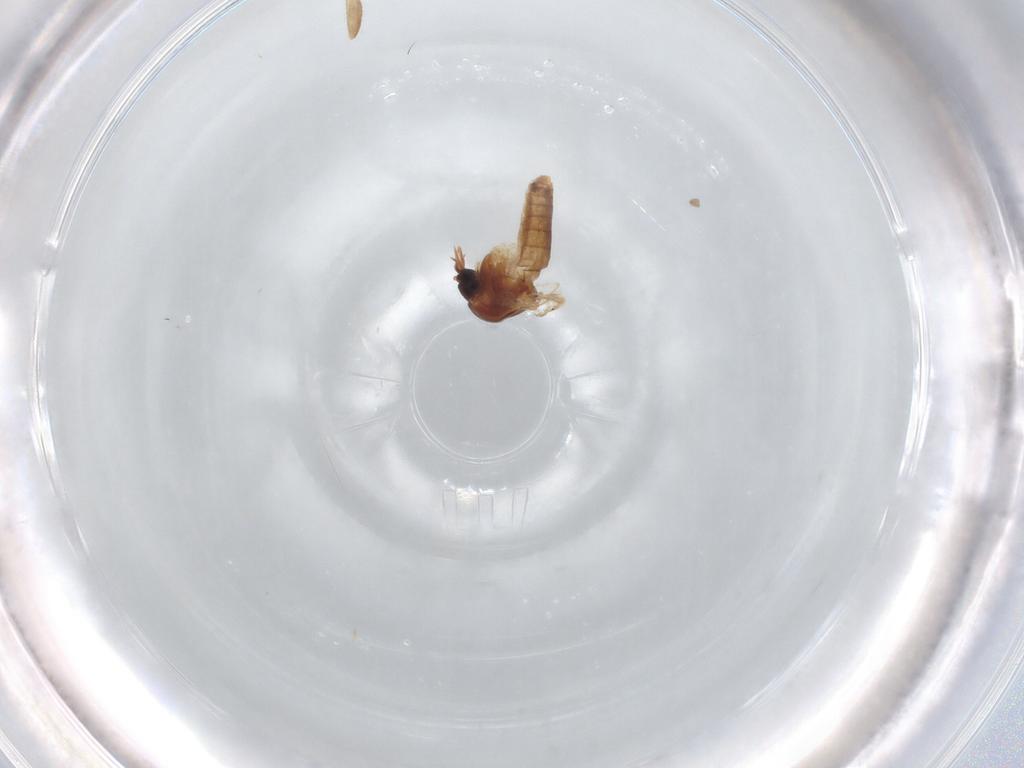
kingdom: Animalia
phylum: Arthropoda
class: Insecta
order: Diptera
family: Ceratopogonidae
